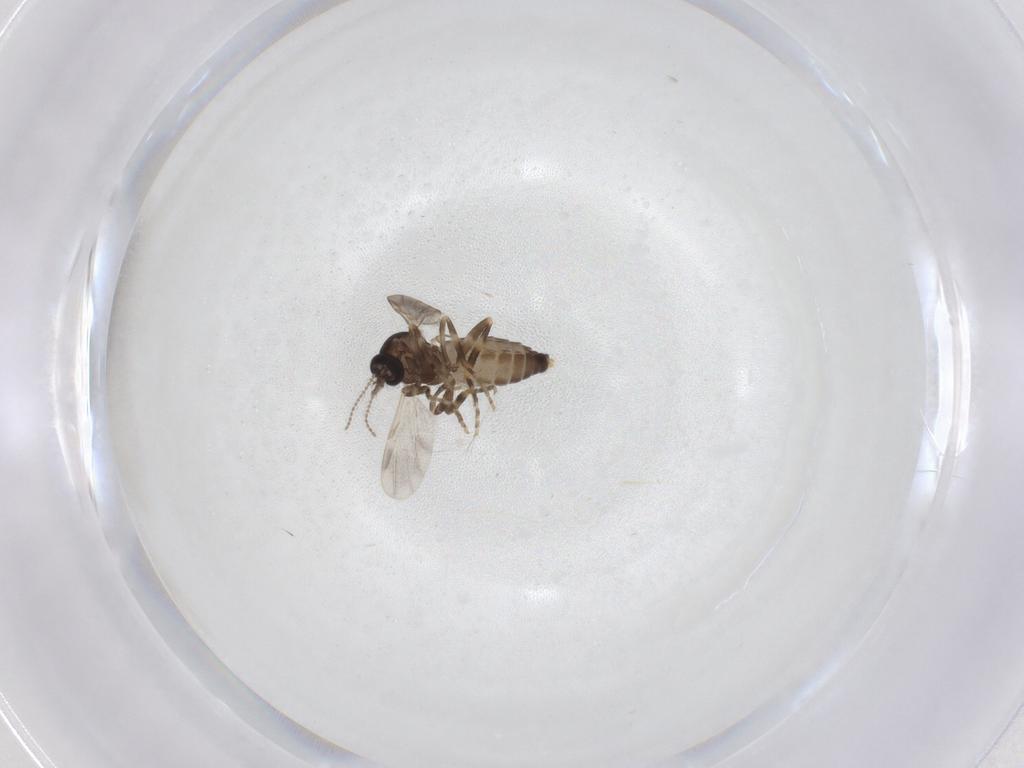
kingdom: Animalia
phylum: Arthropoda
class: Insecta
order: Diptera
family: Ceratopogonidae
